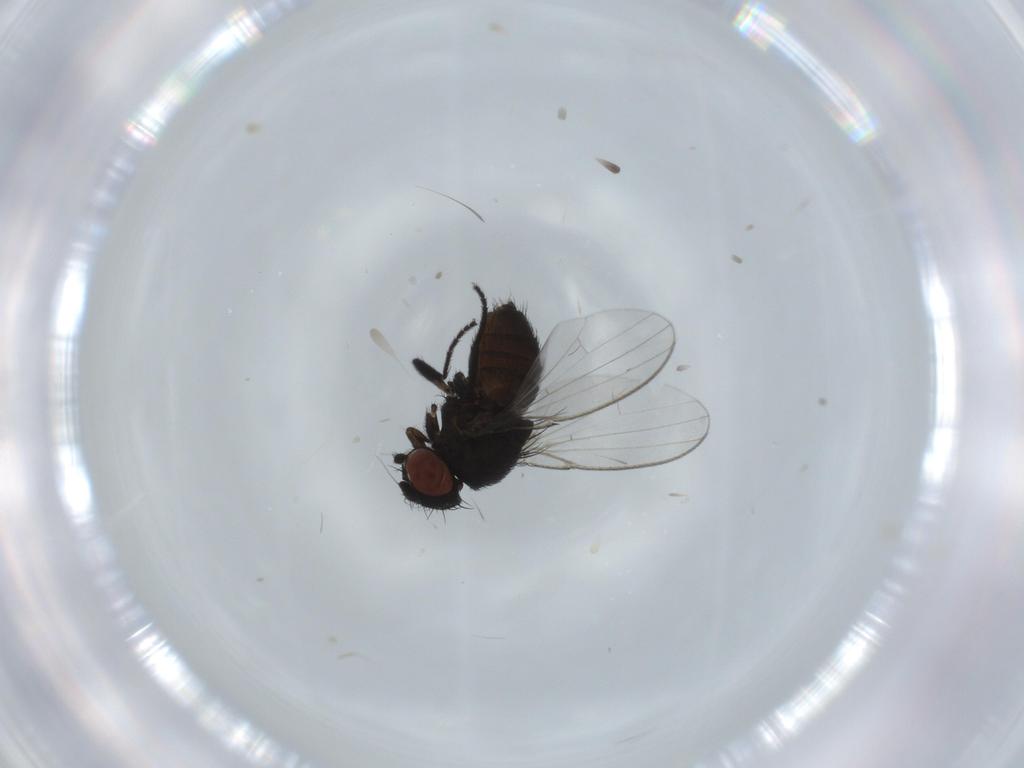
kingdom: Animalia
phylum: Arthropoda
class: Insecta
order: Diptera
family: Milichiidae
